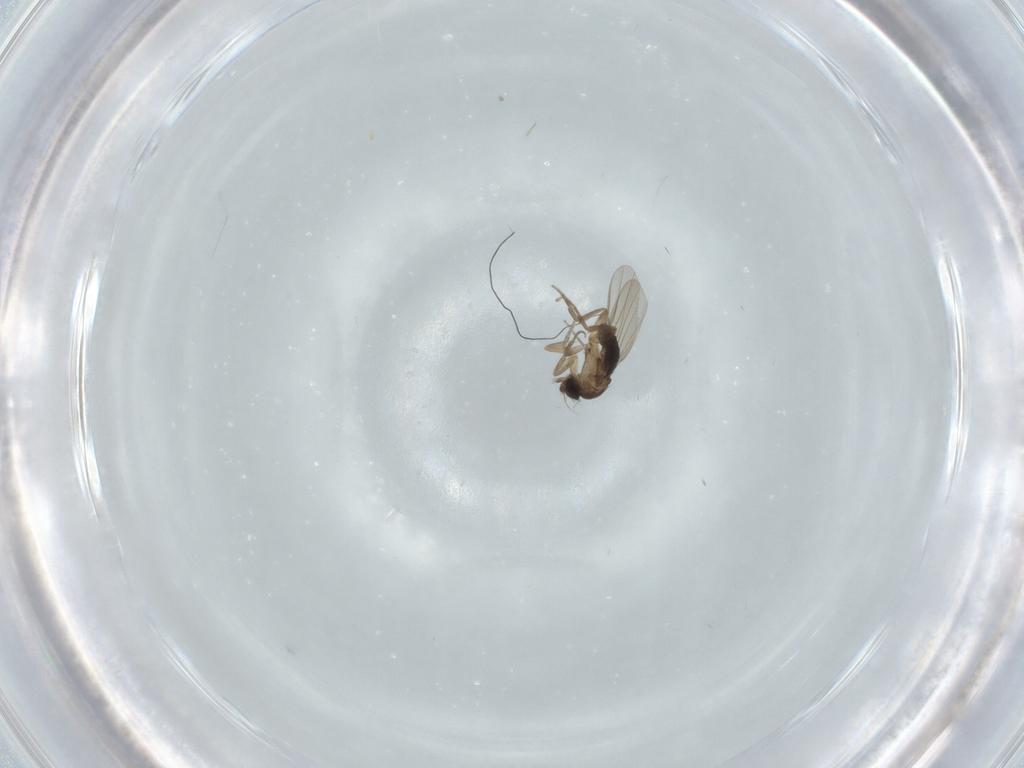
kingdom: Animalia
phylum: Arthropoda
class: Insecta
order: Diptera
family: Phoridae
